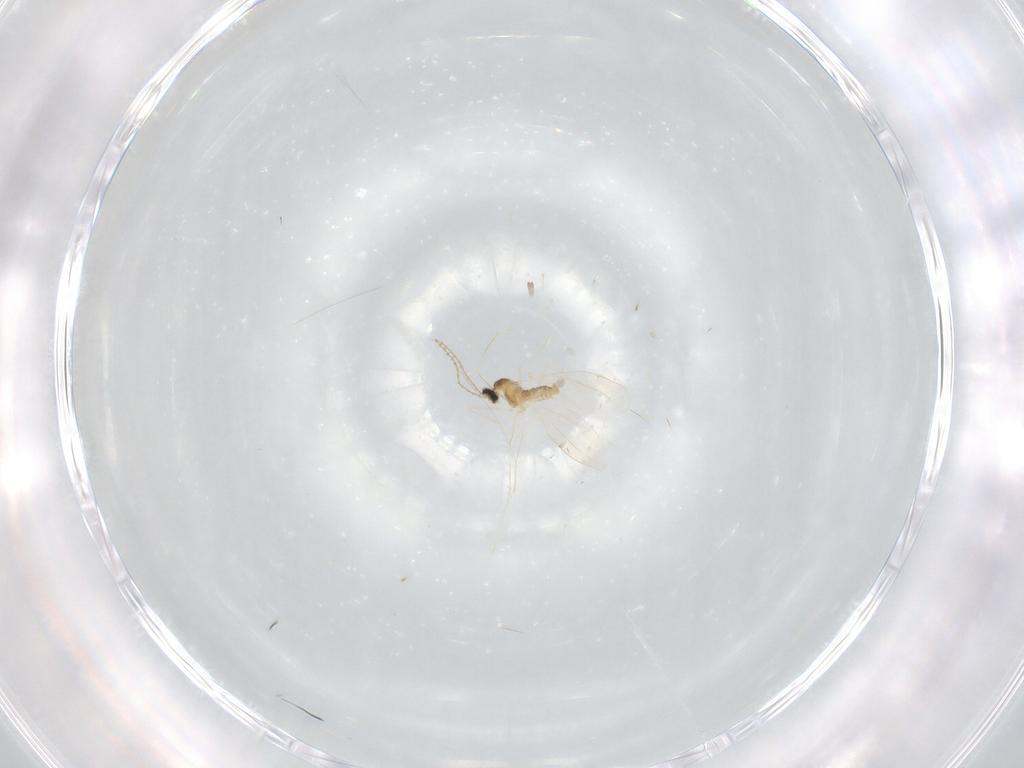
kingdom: Animalia
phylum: Arthropoda
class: Insecta
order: Diptera
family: Cecidomyiidae
